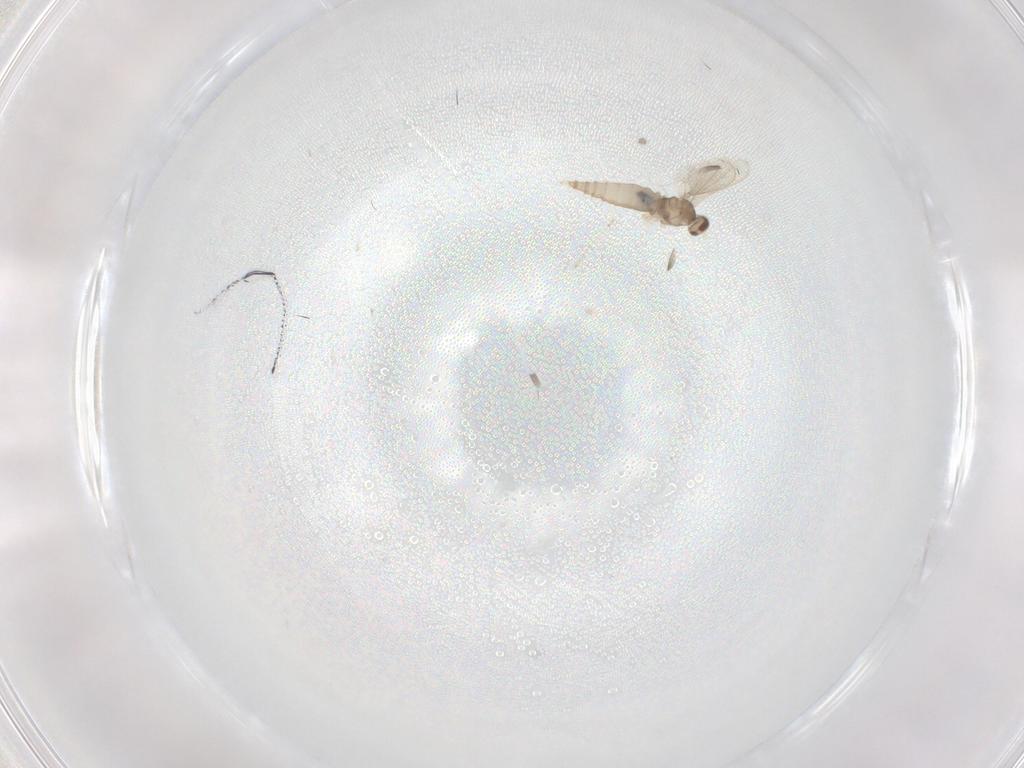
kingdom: Animalia
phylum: Arthropoda
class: Insecta
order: Diptera
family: Cecidomyiidae
